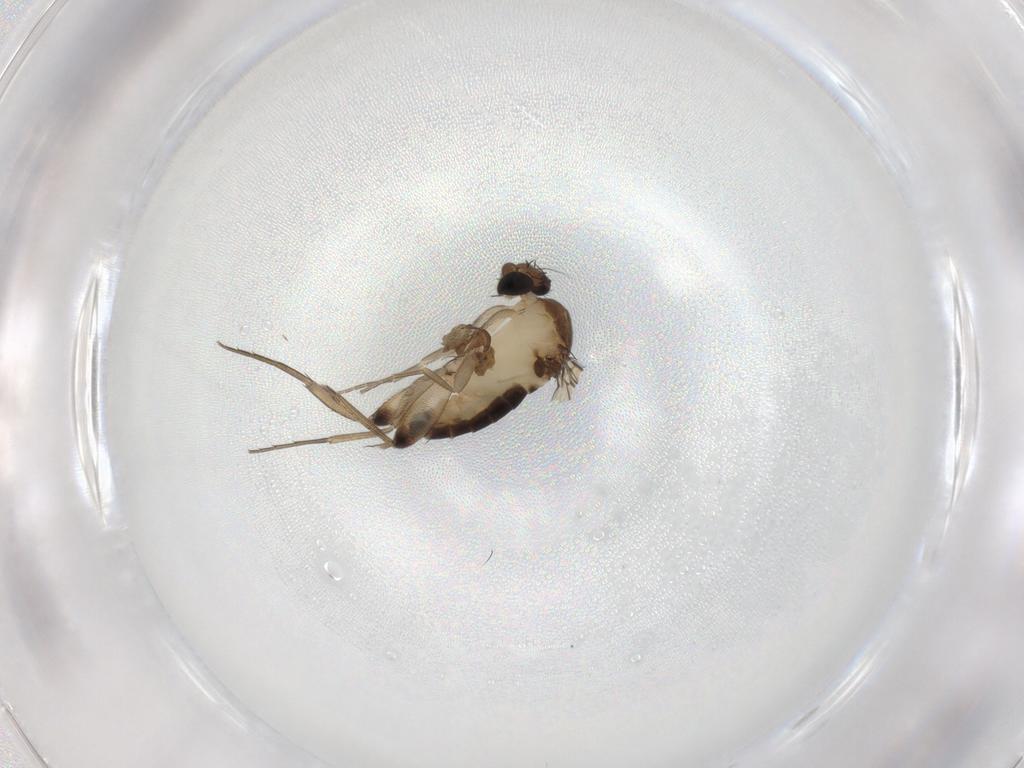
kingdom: Animalia
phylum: Arthropoda
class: Insecta
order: Diptera
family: Phoridae
